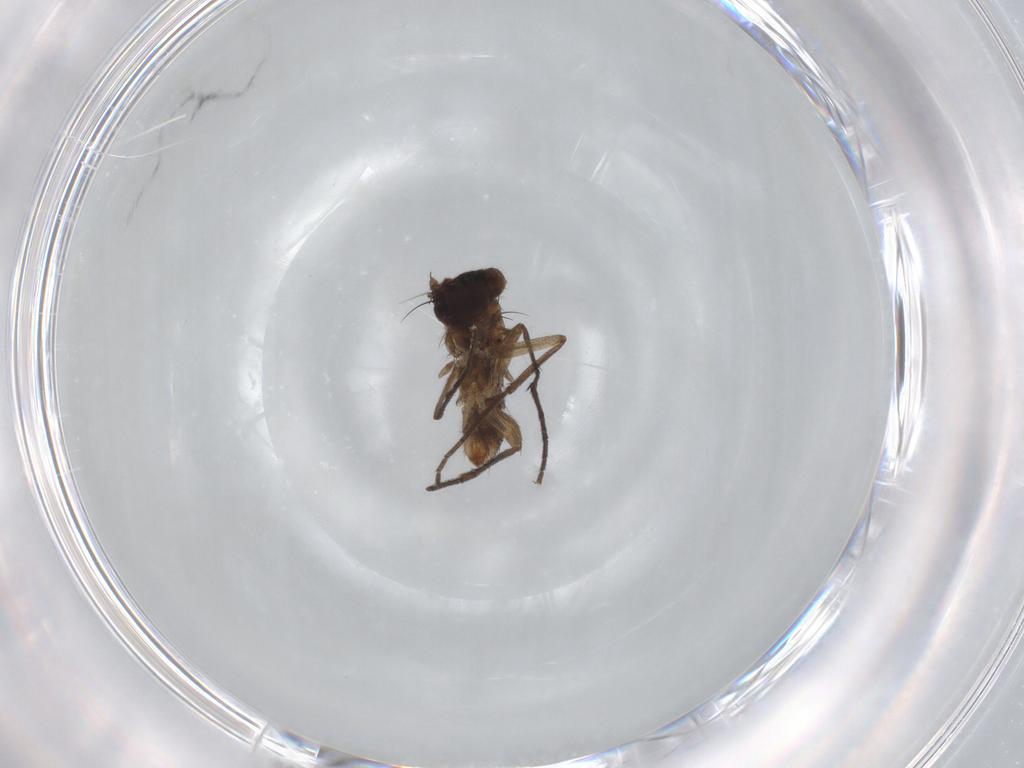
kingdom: Animalia
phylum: Arthropoda
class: Insecta
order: Diptera
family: Dolichopodidae
